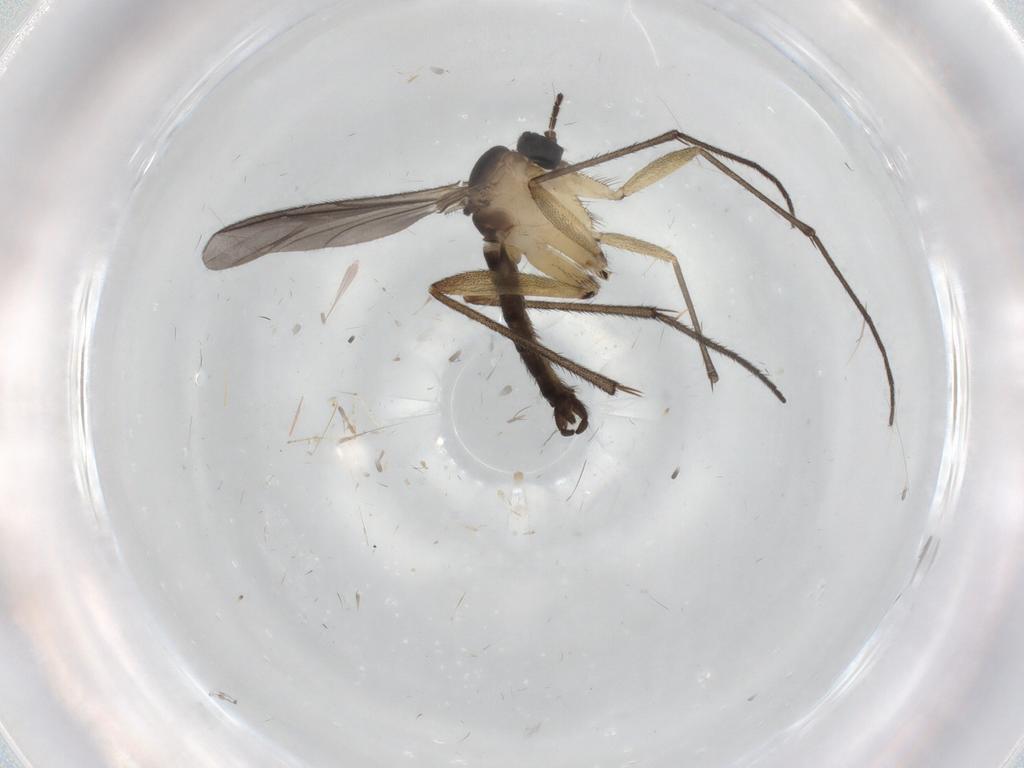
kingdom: Animalia
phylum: Arthropoda
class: Insecta
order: Diptera
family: Sciaridae
